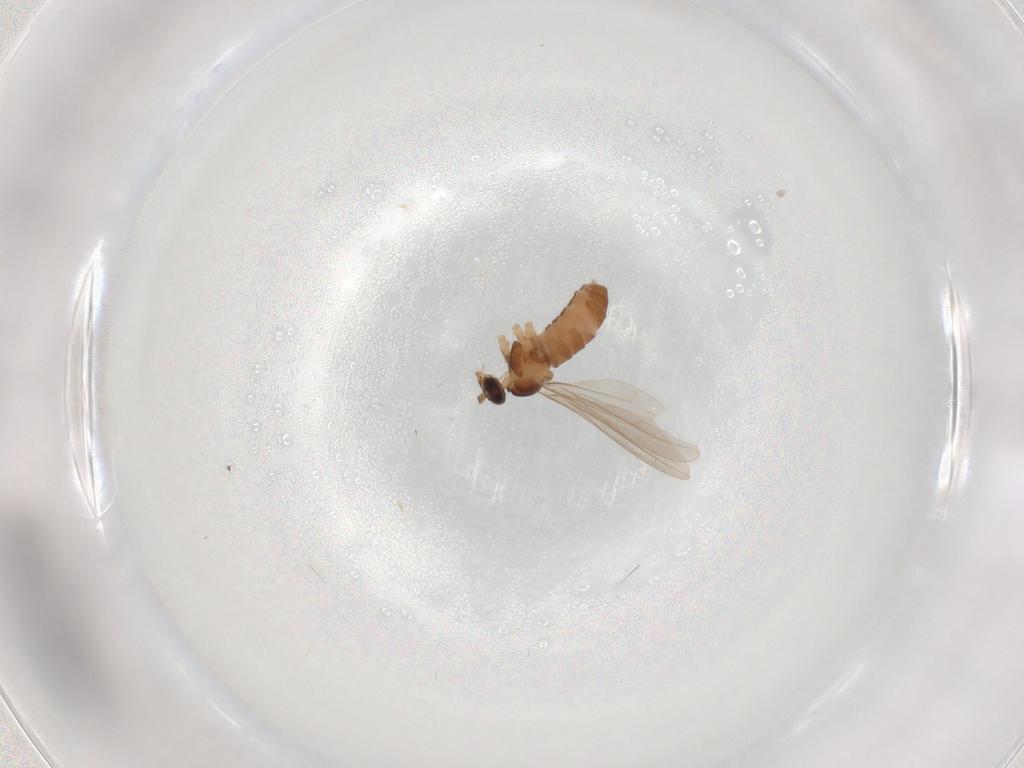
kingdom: Animalia
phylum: Arthropoda
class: Insecta
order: Diptera
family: Cecidomyiidae
